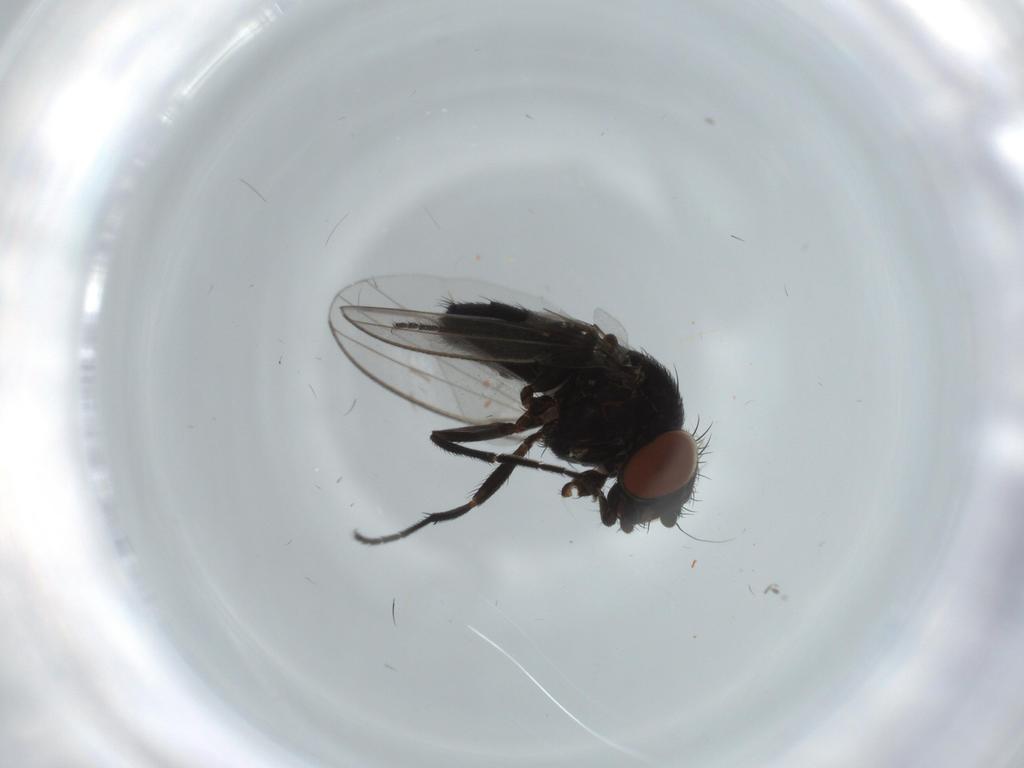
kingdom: Animalia
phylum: Arthropoda
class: Insecta
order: Diptera
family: Milichiidae
